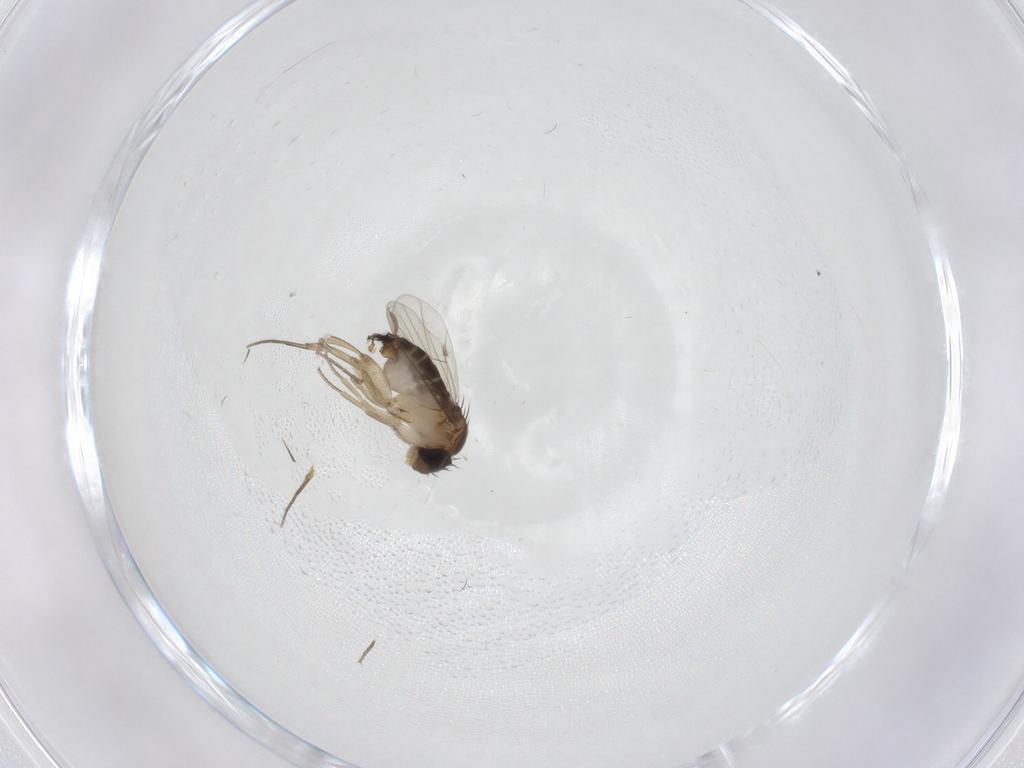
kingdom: Animalia
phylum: Arthropoda
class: Insecta
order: Diptera
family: Phoridae
